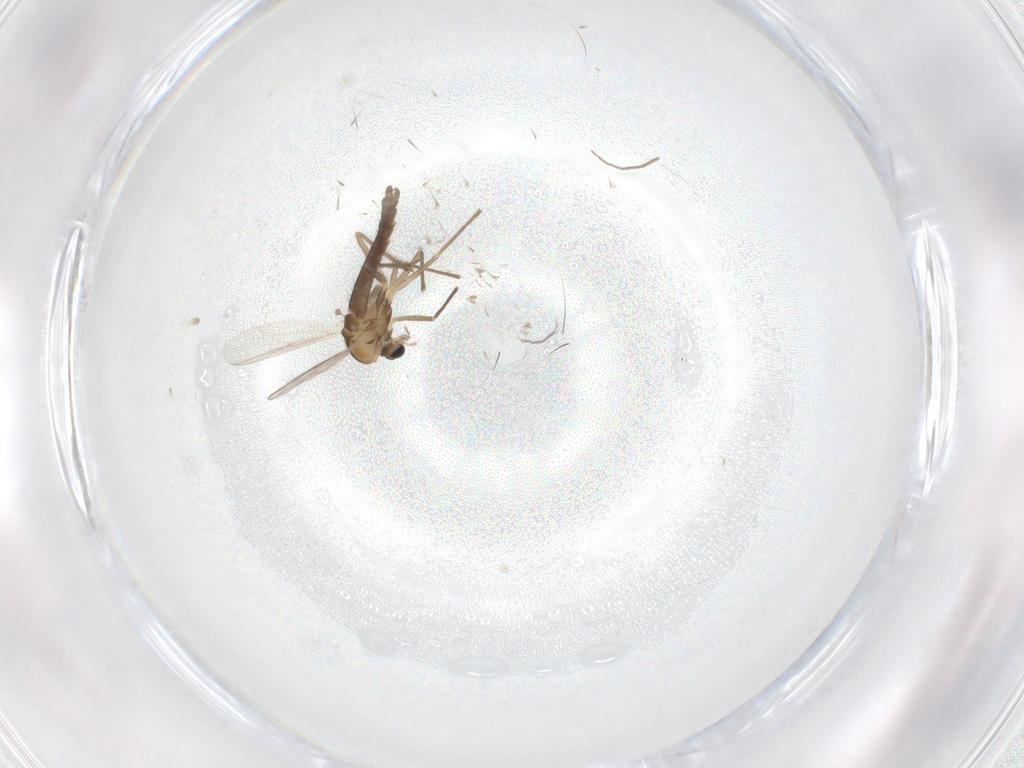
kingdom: Animalia
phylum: Arthropoda
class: Insecta
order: Diptera
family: Chironomidae
